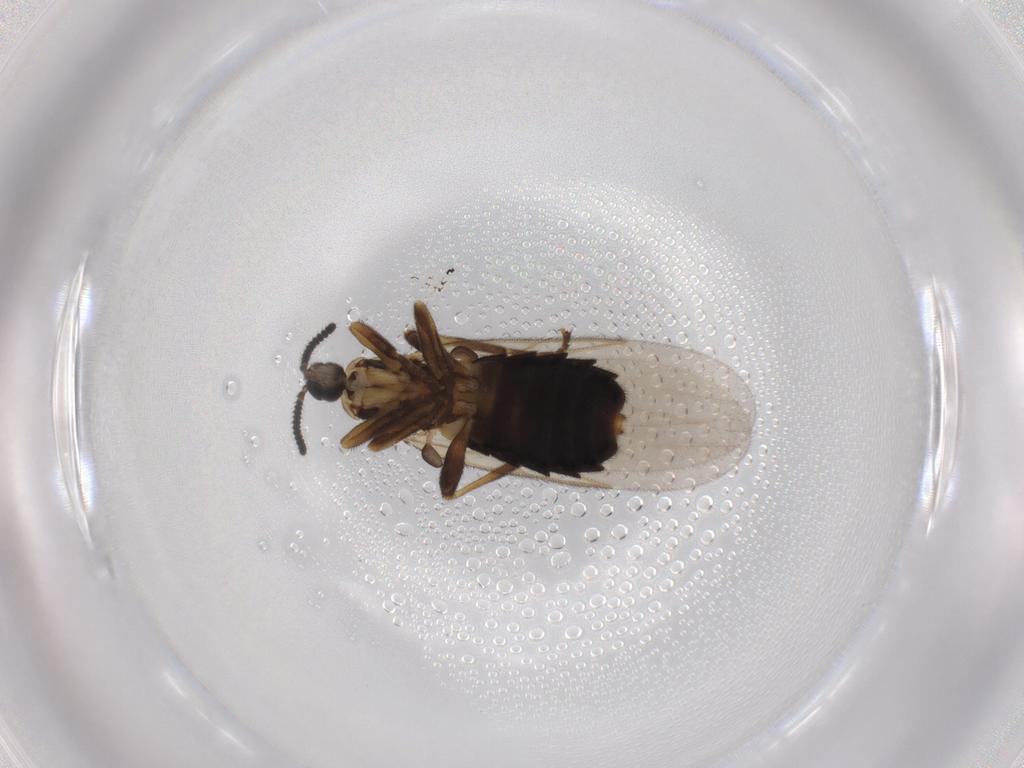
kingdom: Animalia
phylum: Arthropoda
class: Insecta
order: Diptera
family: Scatopsidae
